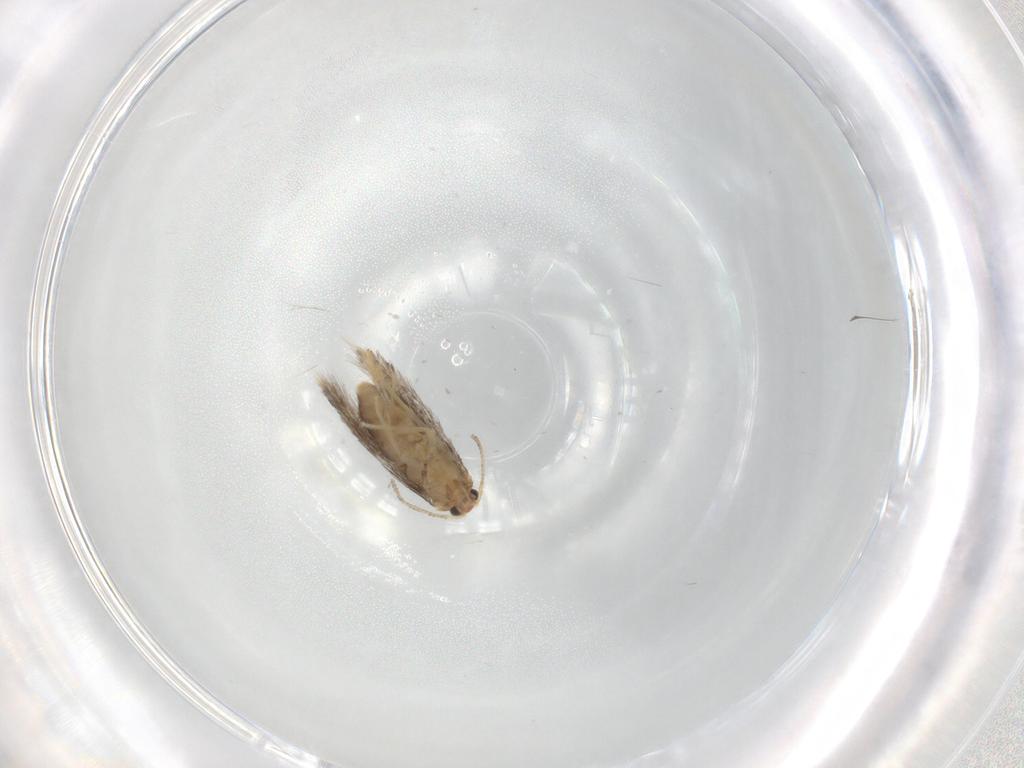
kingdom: Animalia
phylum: Arthropoda
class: Insecta
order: Lepidoptera
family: Nepticulidae
